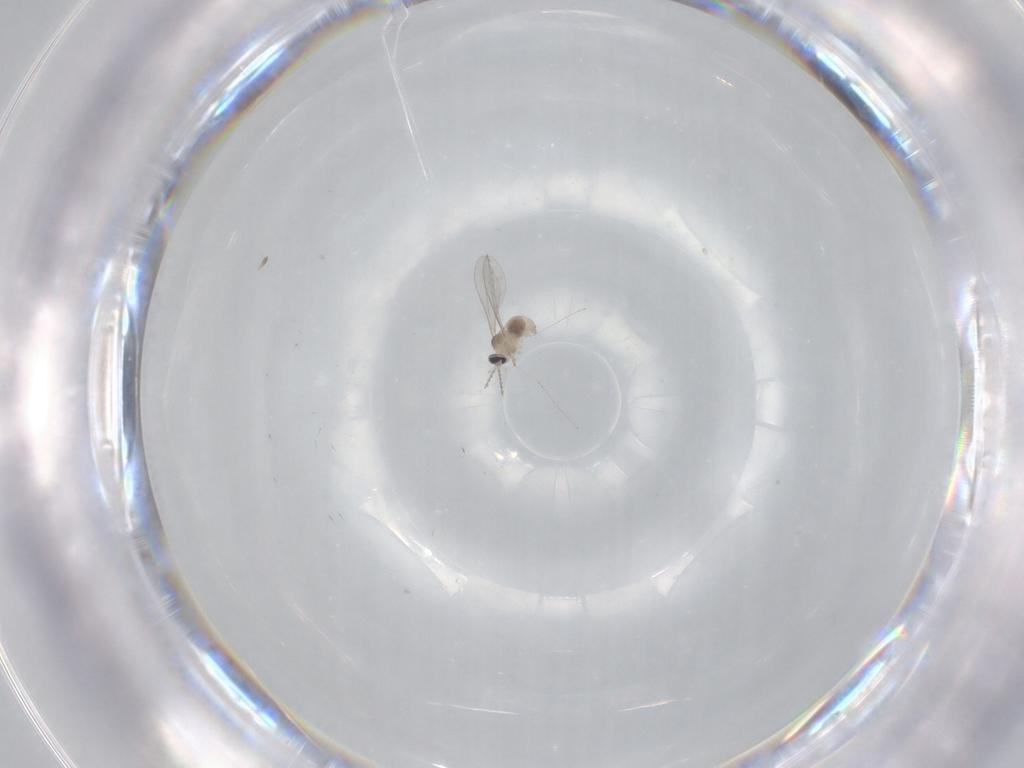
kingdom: Animalia
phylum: Arthropoda
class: Insecta
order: Diptera
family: Cecidomyiidae
